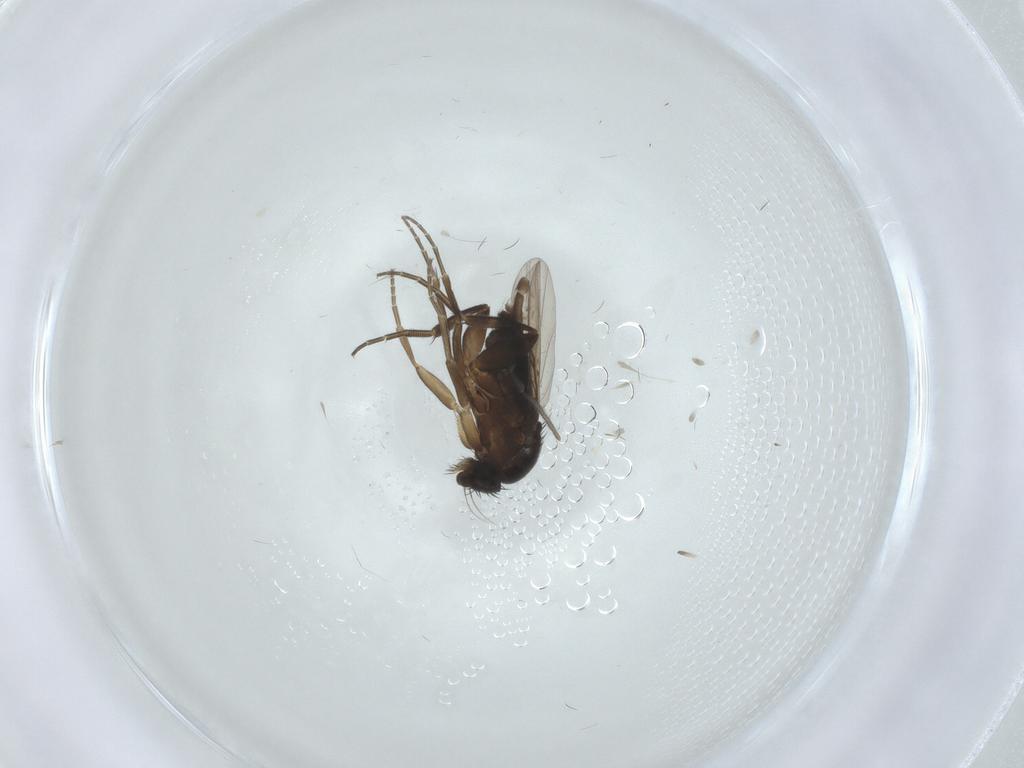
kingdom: Animalia
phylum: Arthropoda
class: Insecta
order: Diptera
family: Phoridae
